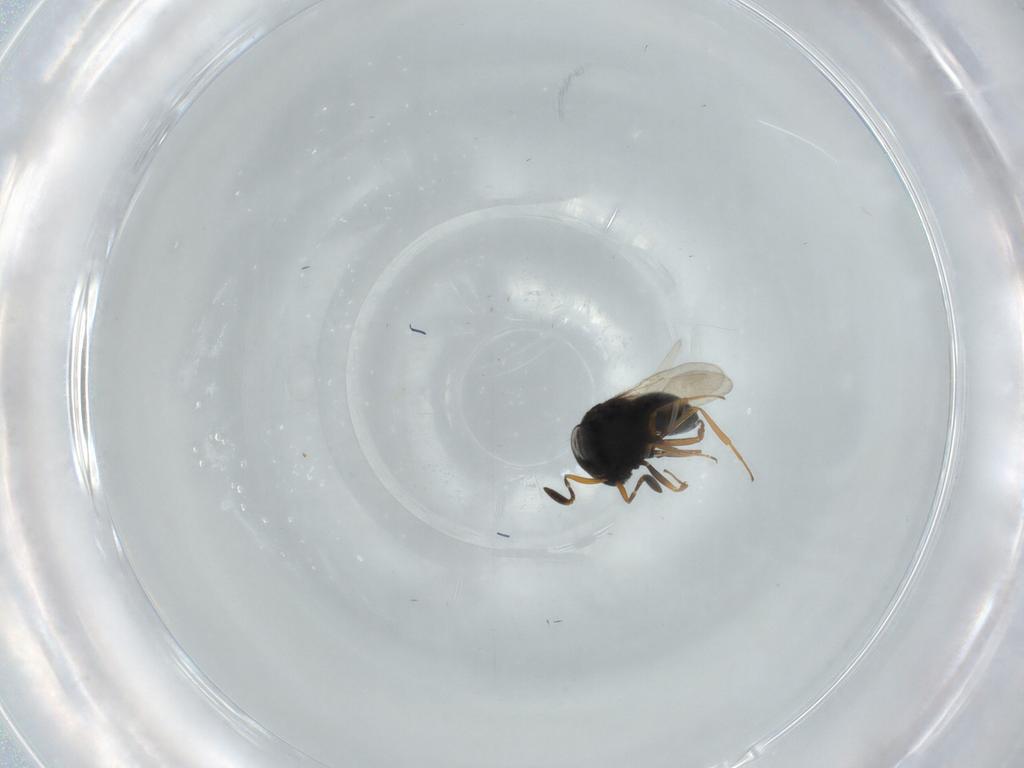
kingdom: Animalia
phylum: Arthropoda
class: Insecta
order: Hymenoptera
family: Scelionidae
